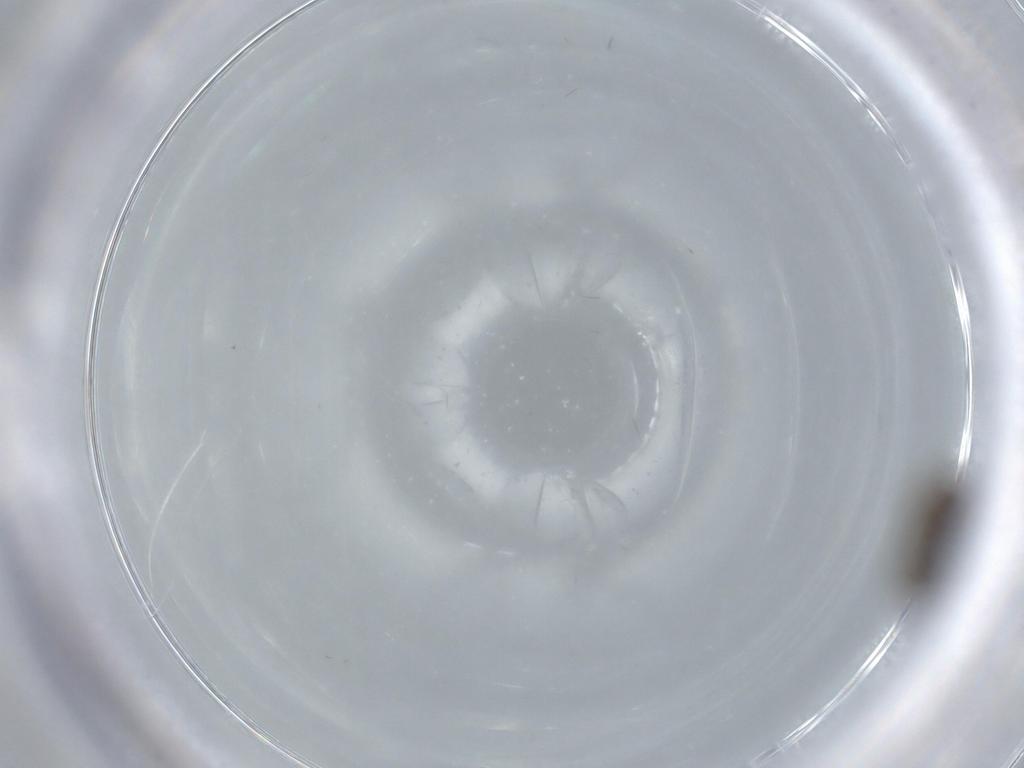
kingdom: Animalia
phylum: Arthropoda
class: Insecta
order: Diptera
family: Psychodidae
